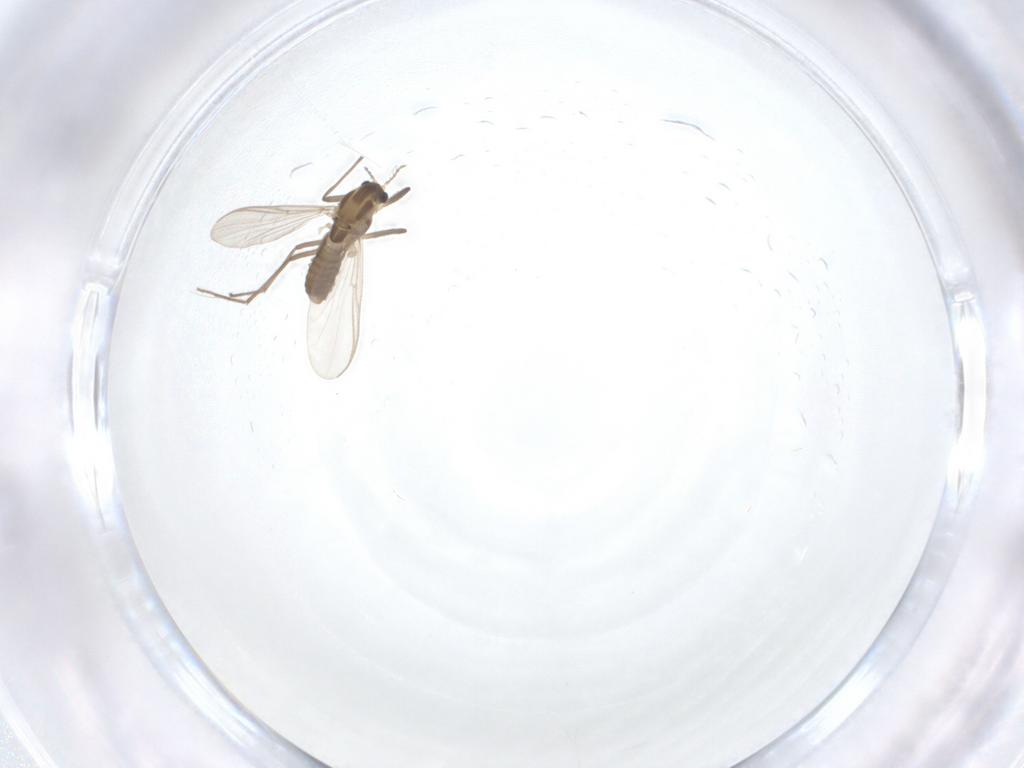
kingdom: Animalia
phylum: Arthropoda
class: Insecta
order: Diptera
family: Chironomidae
